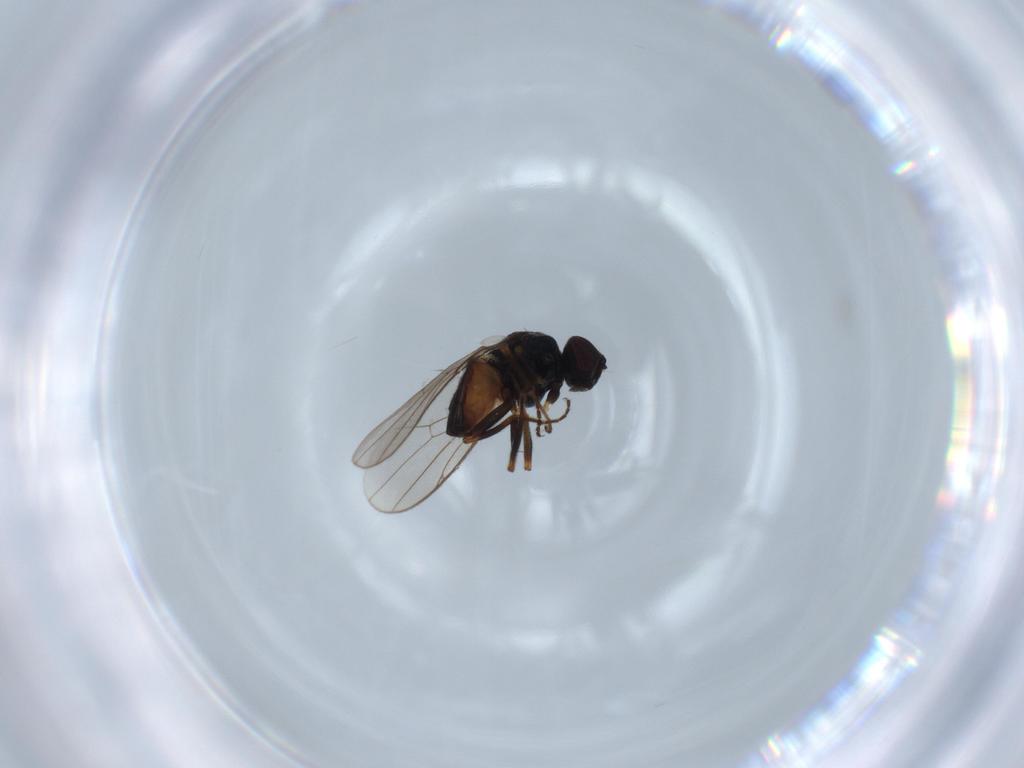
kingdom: Animalia
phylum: Arthropoda
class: Insecta
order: Diptera
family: Chloropidae
